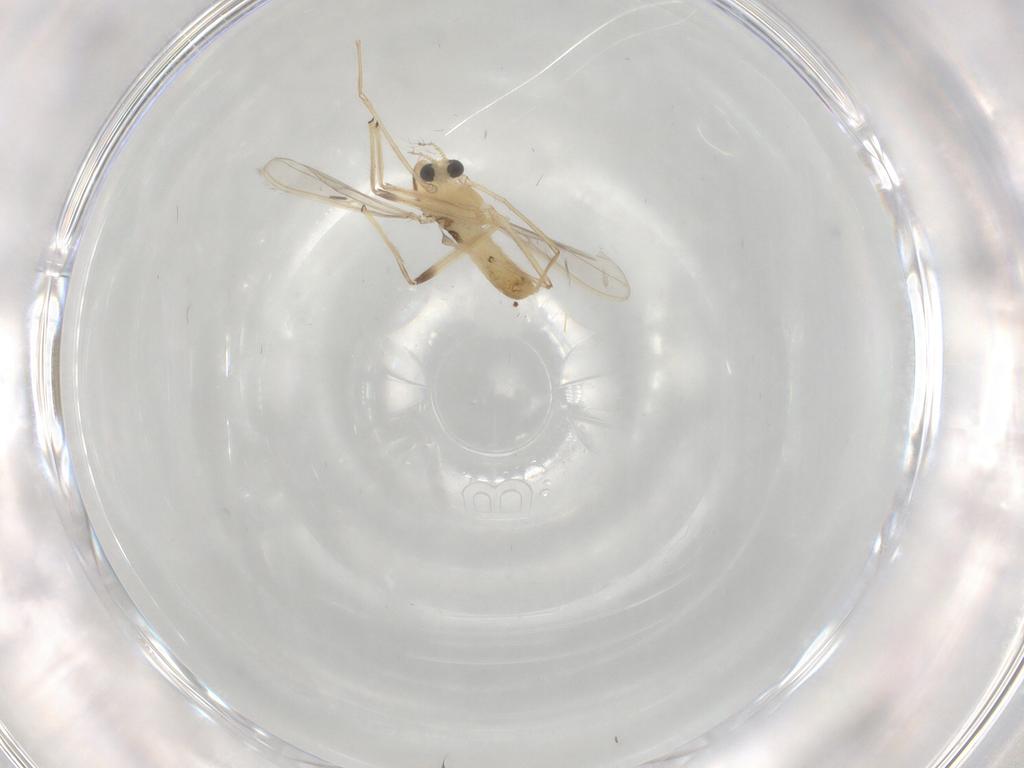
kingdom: Animalia
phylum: Arthropoda
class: Insecta
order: Diptera
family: Chironomidae
